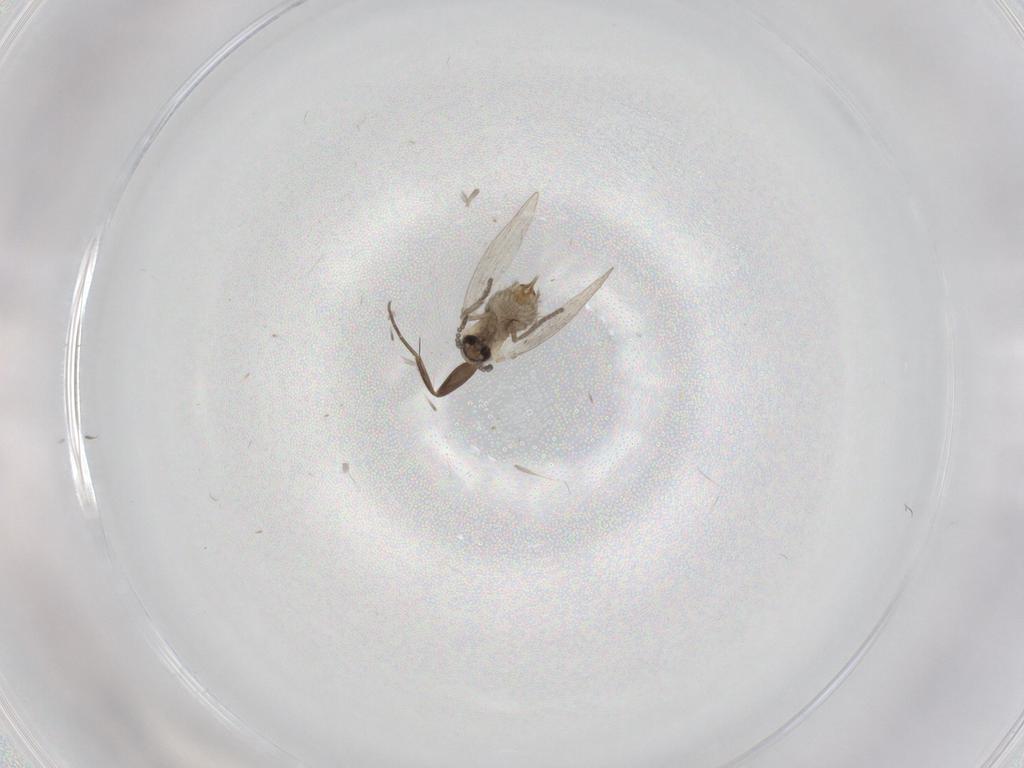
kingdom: Animalia
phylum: Arthropoda
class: Insecta
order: Diptera
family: Psychodidae
